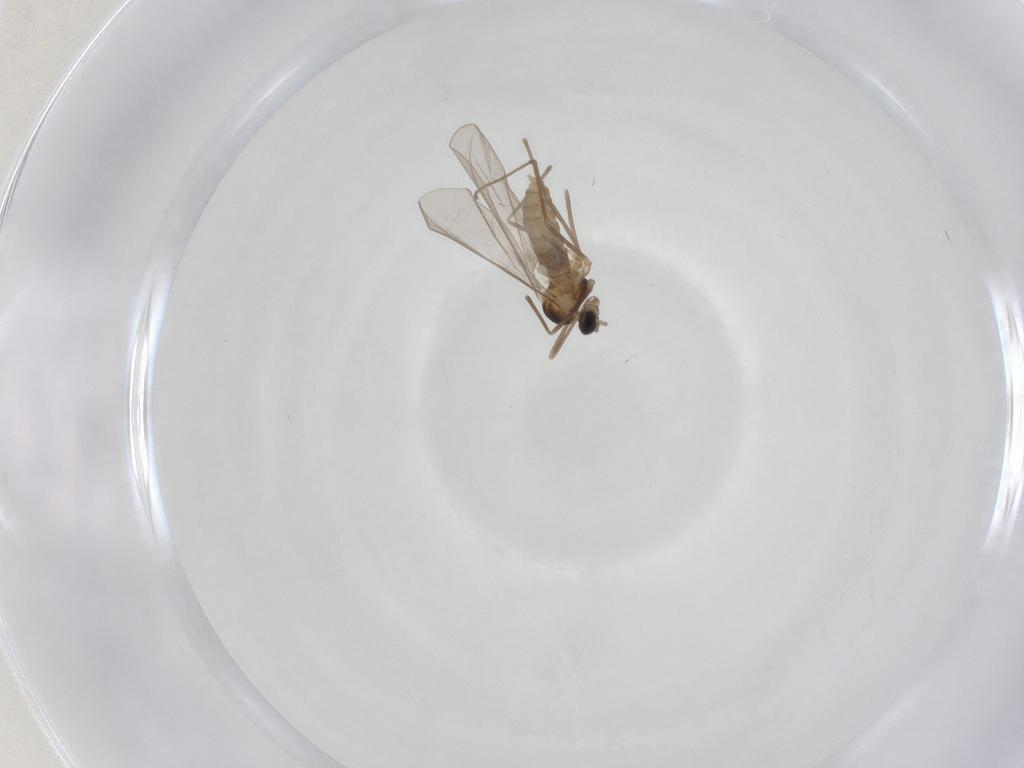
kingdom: Animalia
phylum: Arthropoda
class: Insecta
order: Diptera
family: Cecidomyiidae
